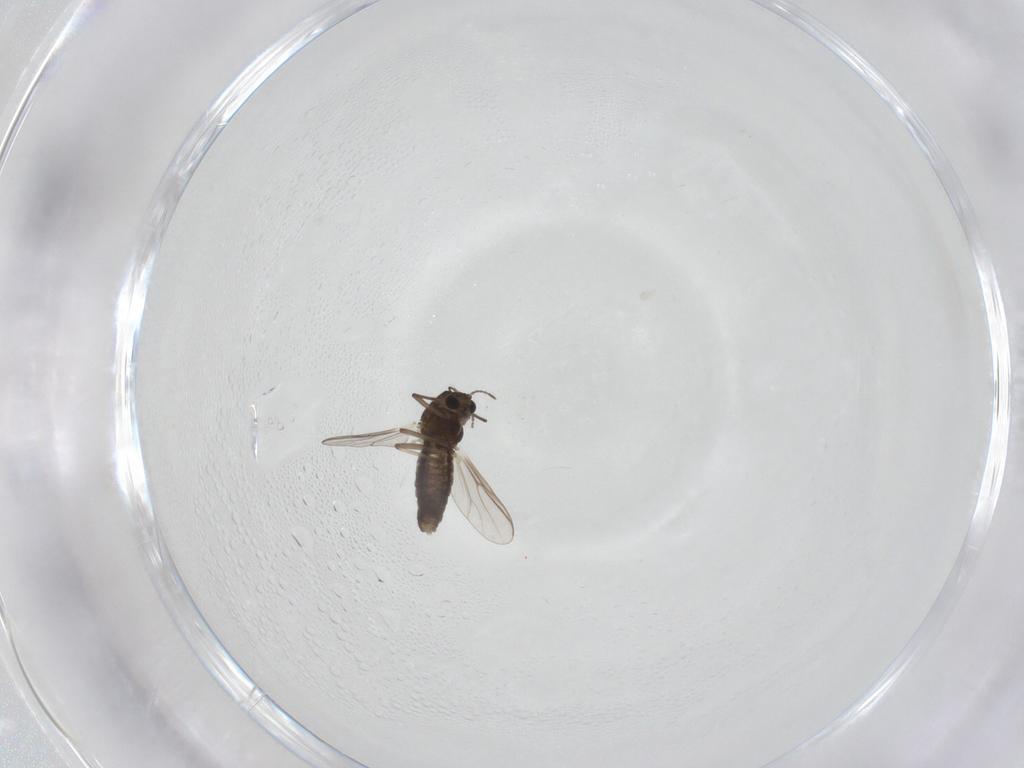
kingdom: Animalia
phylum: Arthropoda
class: Insecta
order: Diptera
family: Chironomidae
